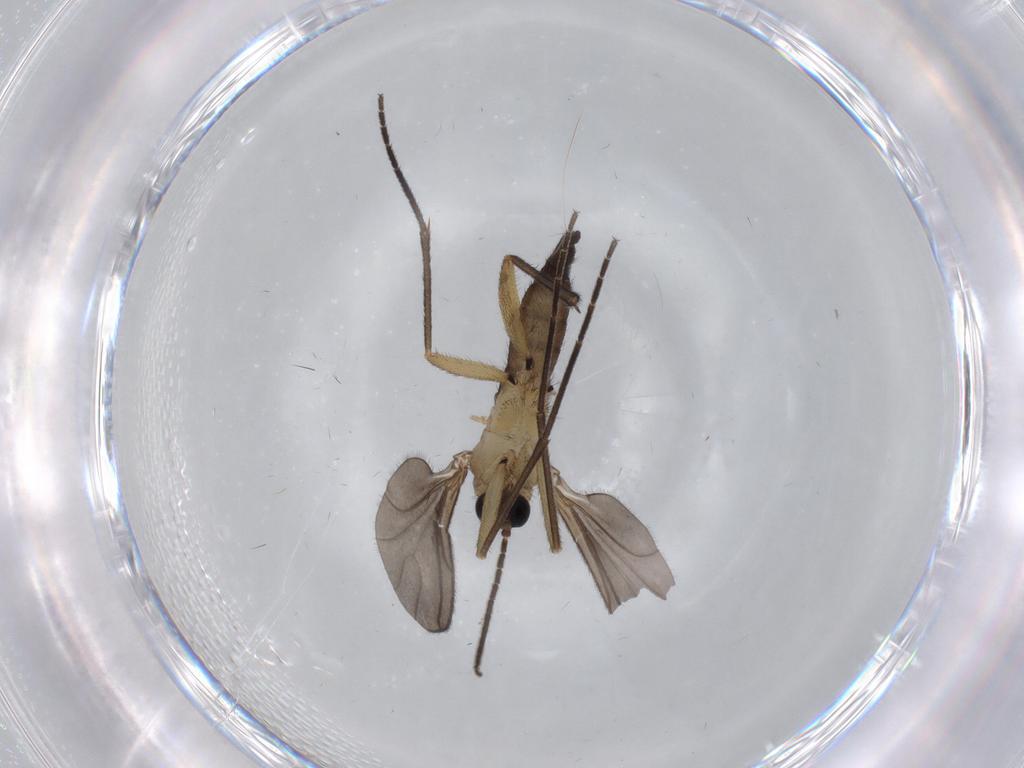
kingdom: Animalia
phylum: Arthropoda
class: Insecta
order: Diptera
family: Sciaridae
